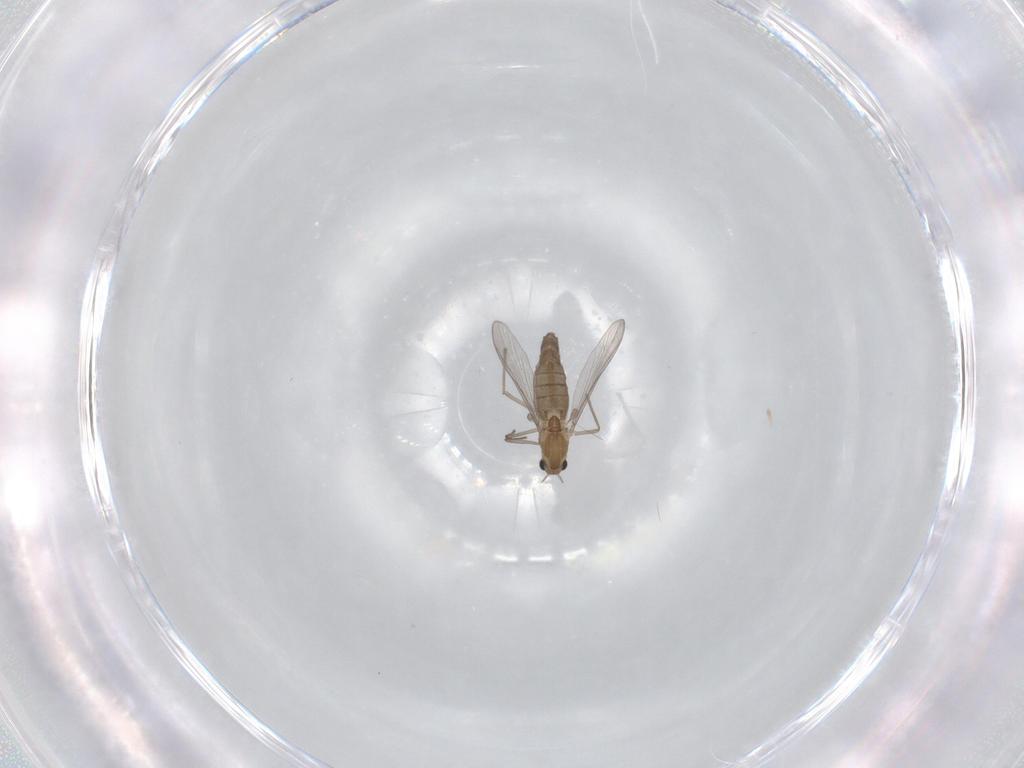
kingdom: Animalia
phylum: Arthropoda
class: Insecta
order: Diptera
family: Chironomidae
